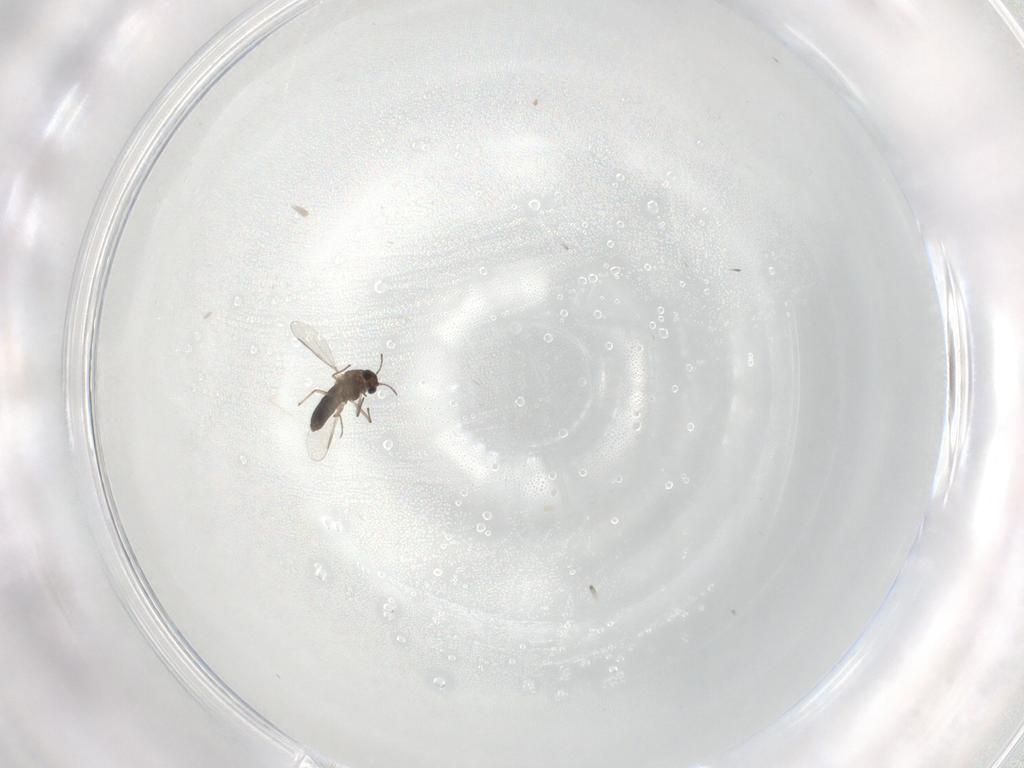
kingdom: Animalia
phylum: Arthropoda
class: Insecta
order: Diptera
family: Chironomidae
